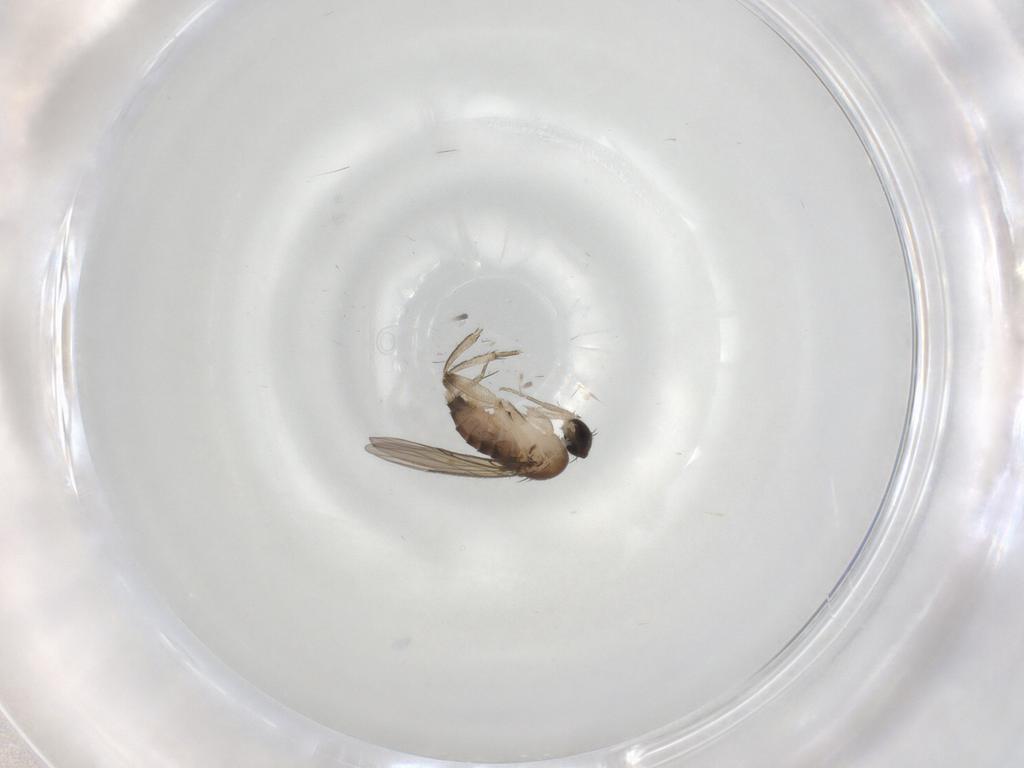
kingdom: Animalia
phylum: Arthropoda
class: Insecta
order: Diptera
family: Phoridae
